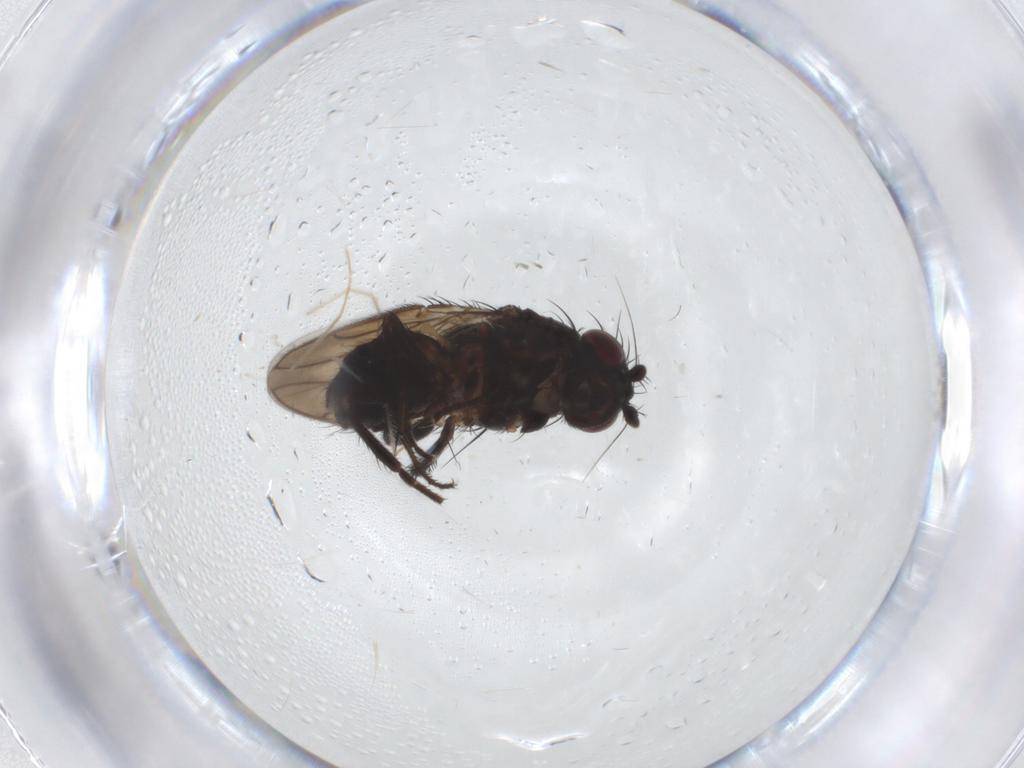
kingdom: Animalia
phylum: Arthropoda
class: Insecta
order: Diptera
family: Sphaeroceridae
